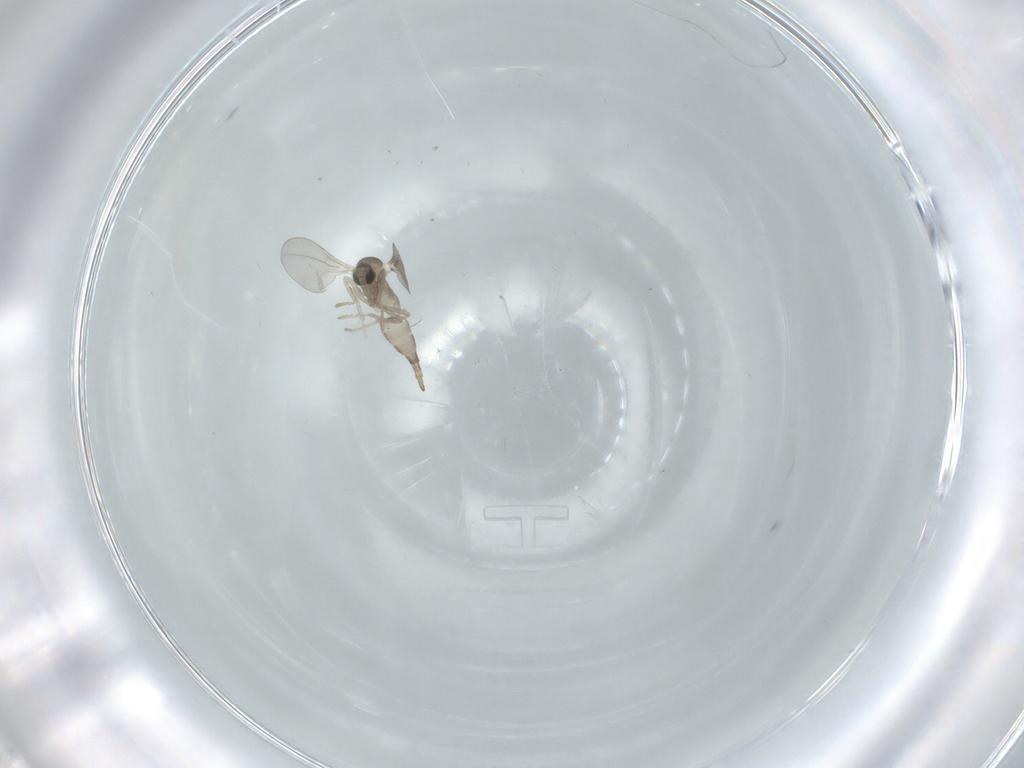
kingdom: Animalia
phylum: Arthropoda
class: Insecta
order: Diptera
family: Cecidomyiidae
